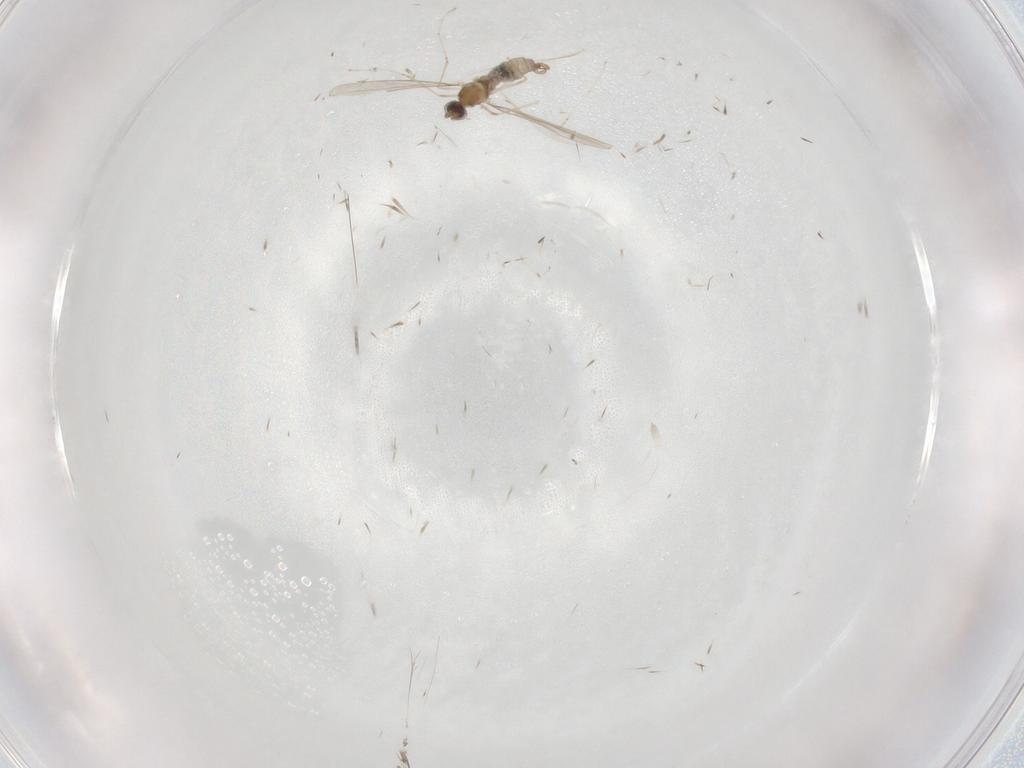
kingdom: Animalia
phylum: Arthropoda
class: Insecta
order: Diptera
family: Cecidomyiidae
